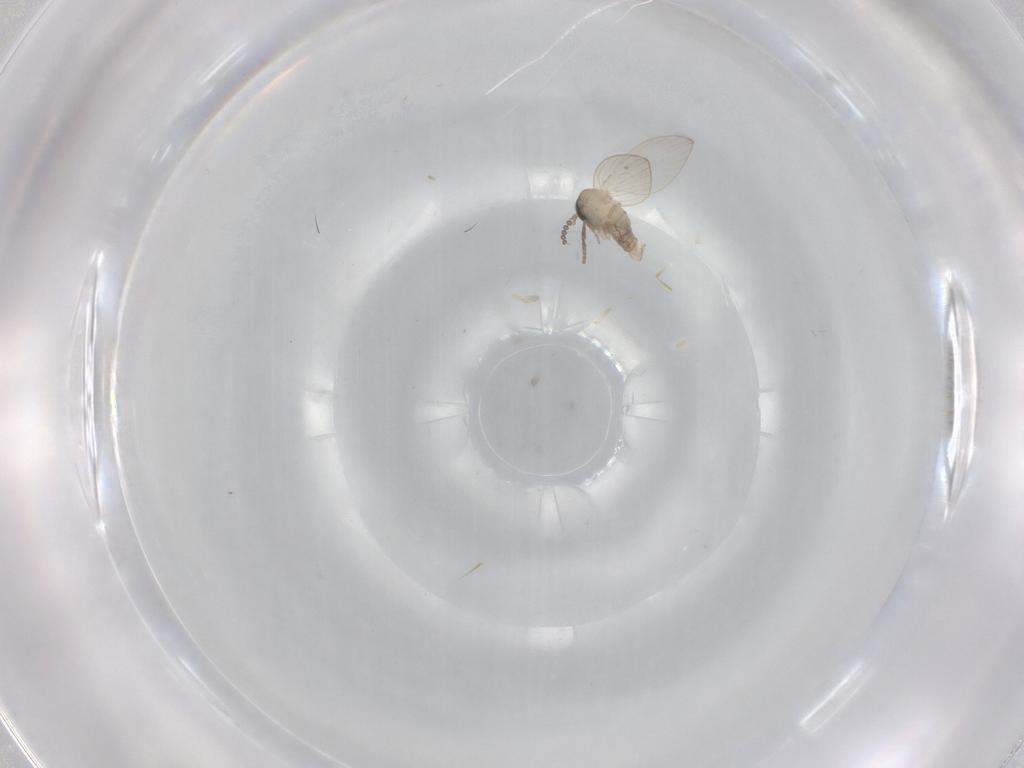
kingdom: Animalia
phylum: Arthropoda
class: Insecta
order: Diptera
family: Psychodidae
